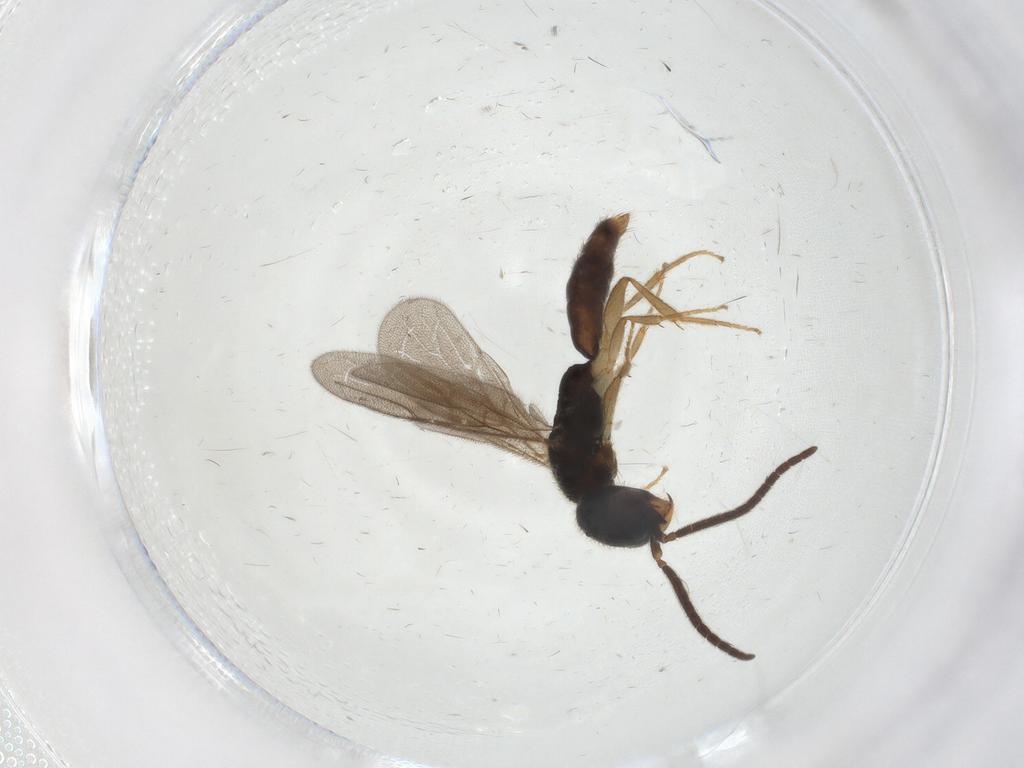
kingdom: Animalia
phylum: Arthropoda
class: Insecta
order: Hymenoptera
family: Bethylidae
